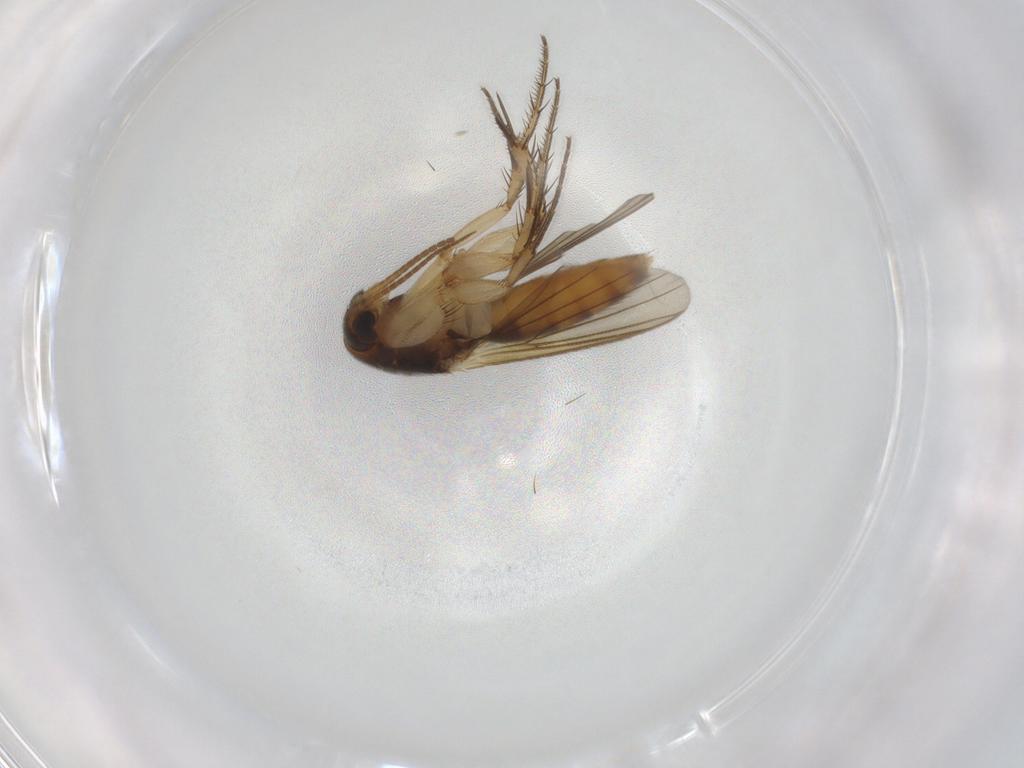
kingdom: Animalia
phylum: Arthropoda
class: Insecta
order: Diptera
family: Mycetophilidae
